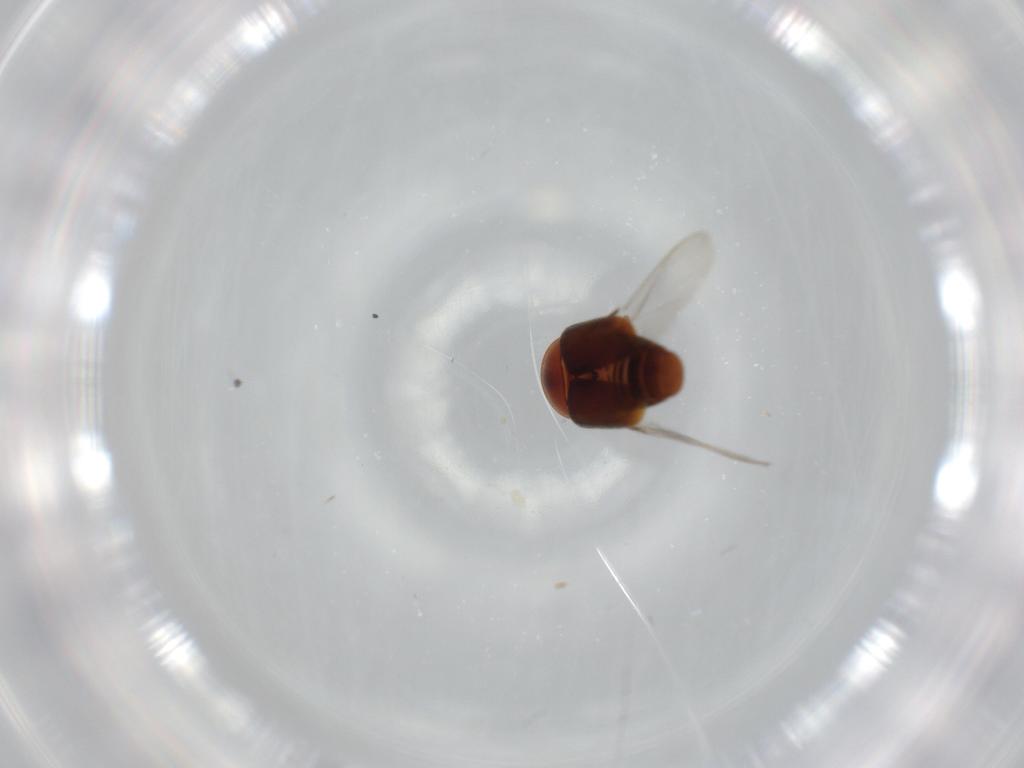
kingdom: Animalia
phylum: Arthropoda
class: Insecta
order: Coleoptera
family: Corylophidae
